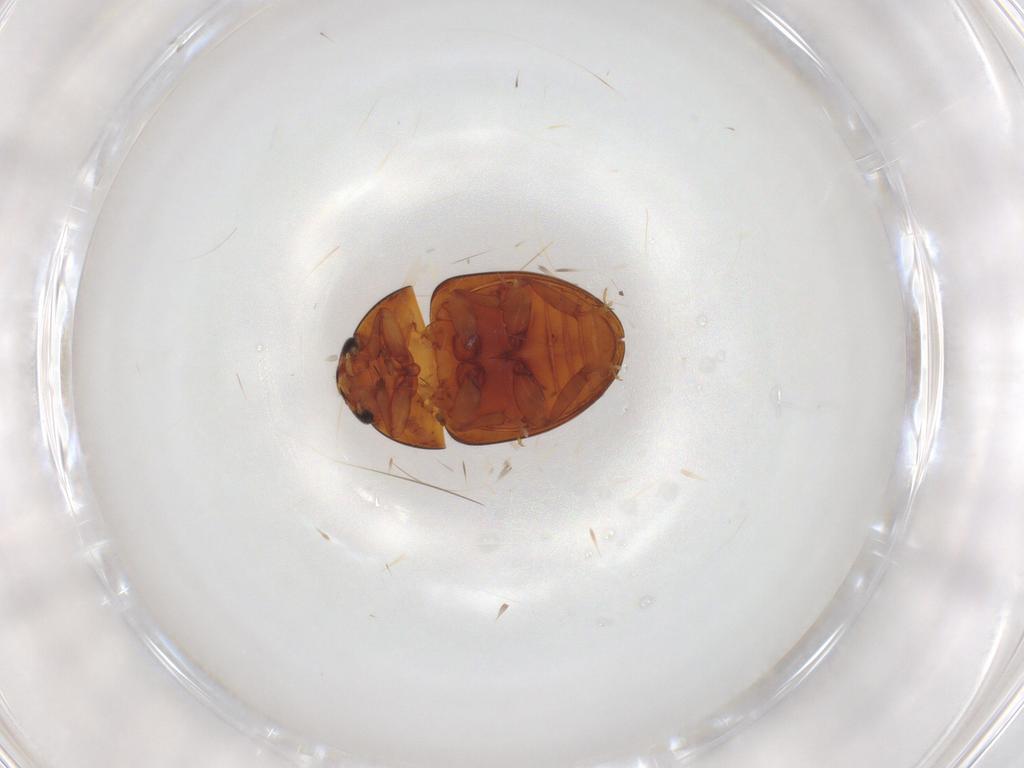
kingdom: Animalia
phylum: Arthropoda
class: Insecta
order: Coleoptera
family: Phalacridae
